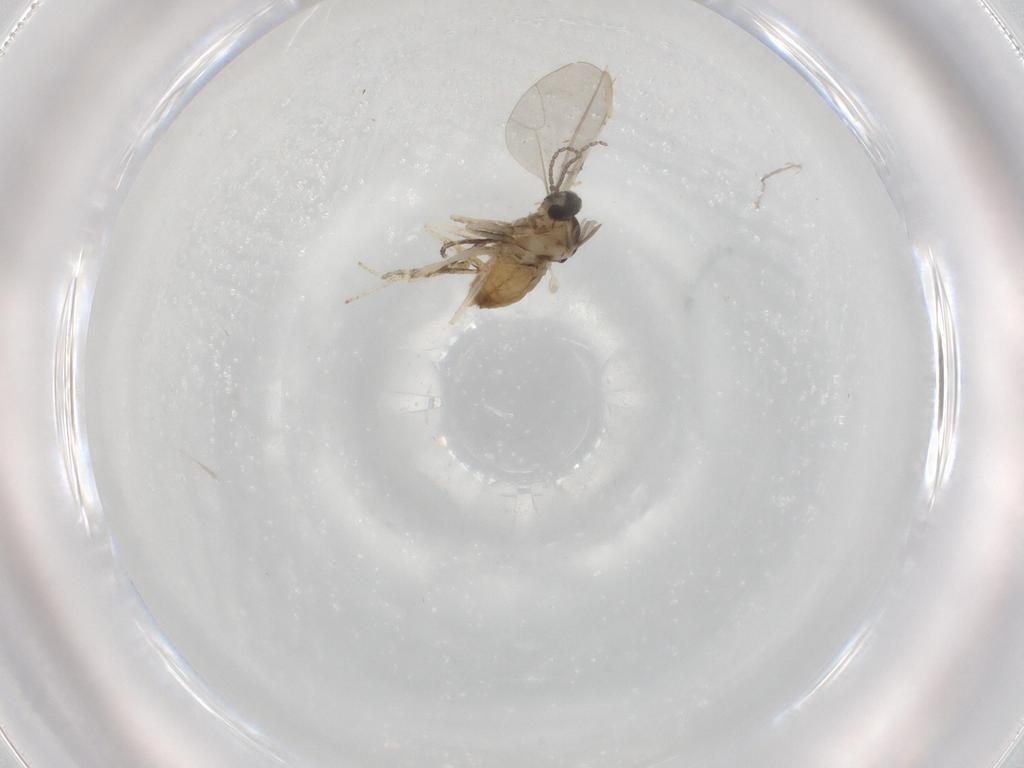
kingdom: Animalia
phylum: Arthropoda
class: Insecta
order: Diptera
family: Cecidomyiidae
